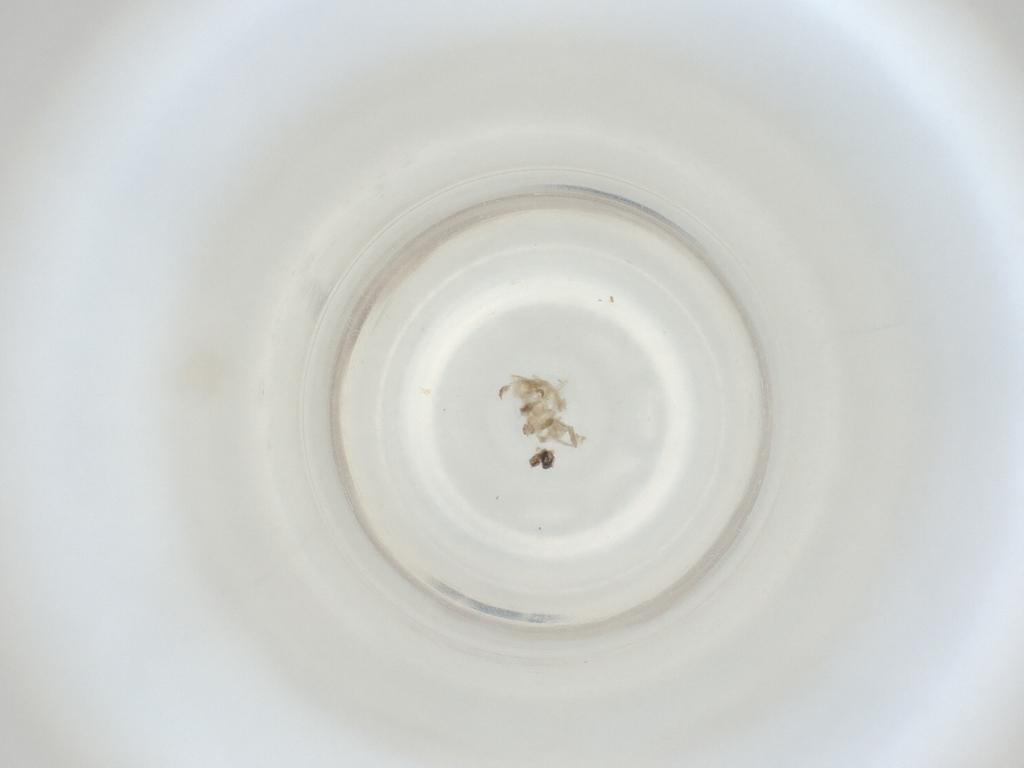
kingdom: Animalia
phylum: Arthropoda
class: Insecta
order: Diptera
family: Cecidomyiidae
